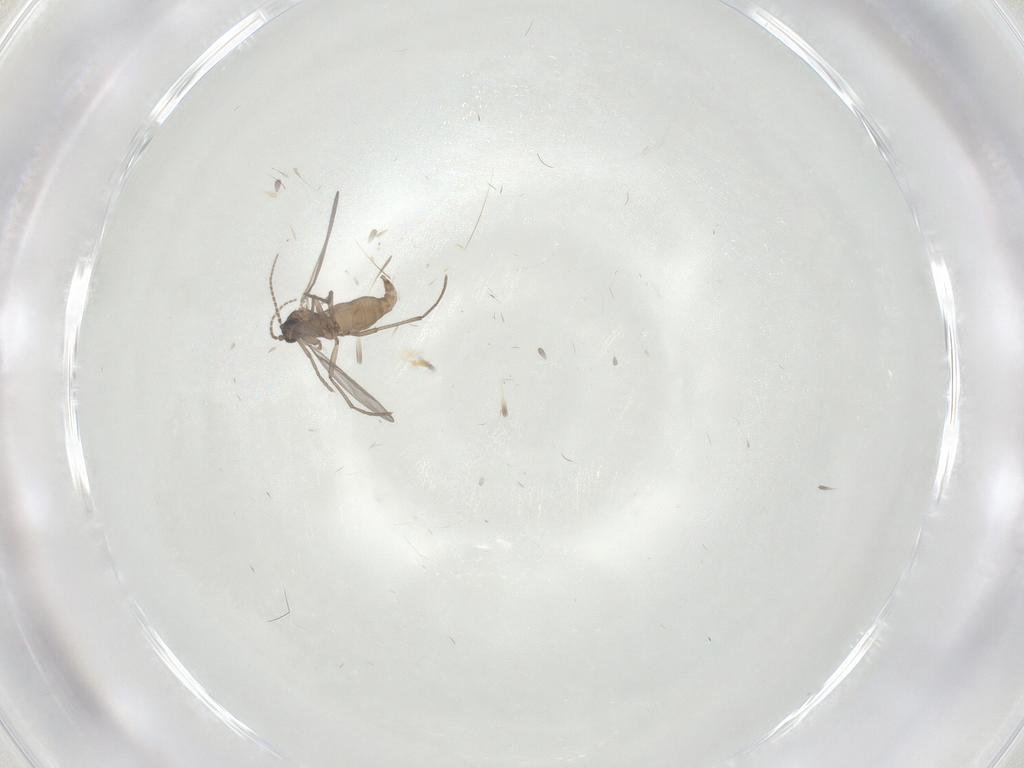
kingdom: Animalia
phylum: Arthropoda
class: Insecta
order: Diptera
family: Sciaridae
